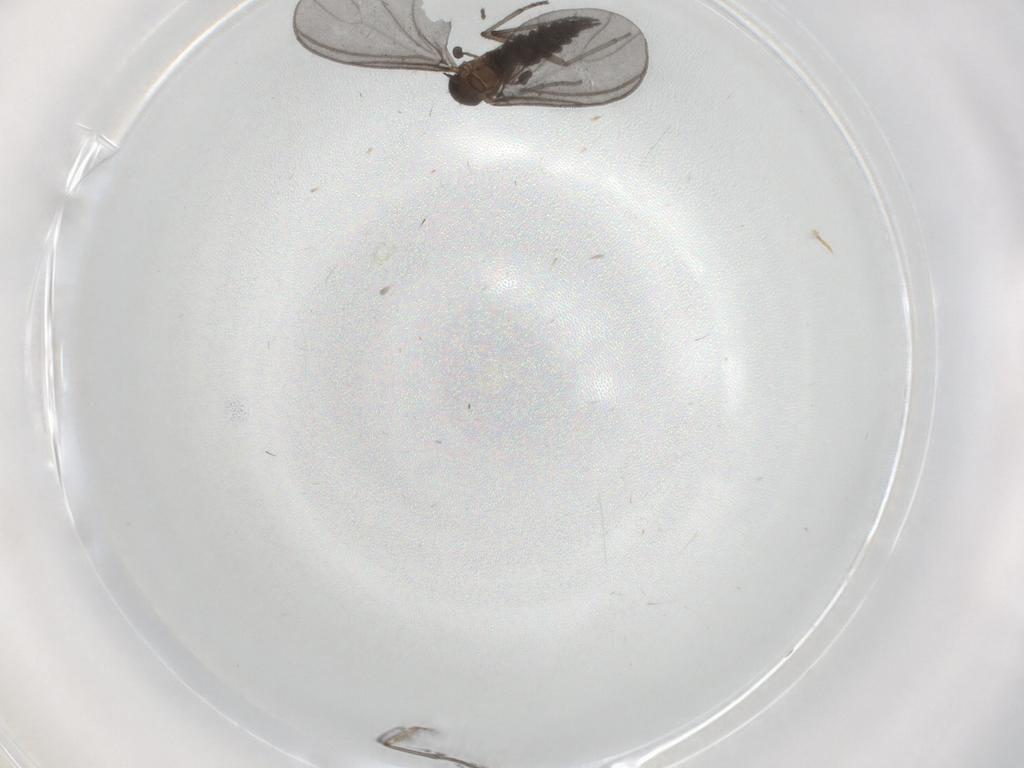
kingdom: Animalia
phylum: Arthropoda
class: Insecta
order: Diptera
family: Sciaridae
